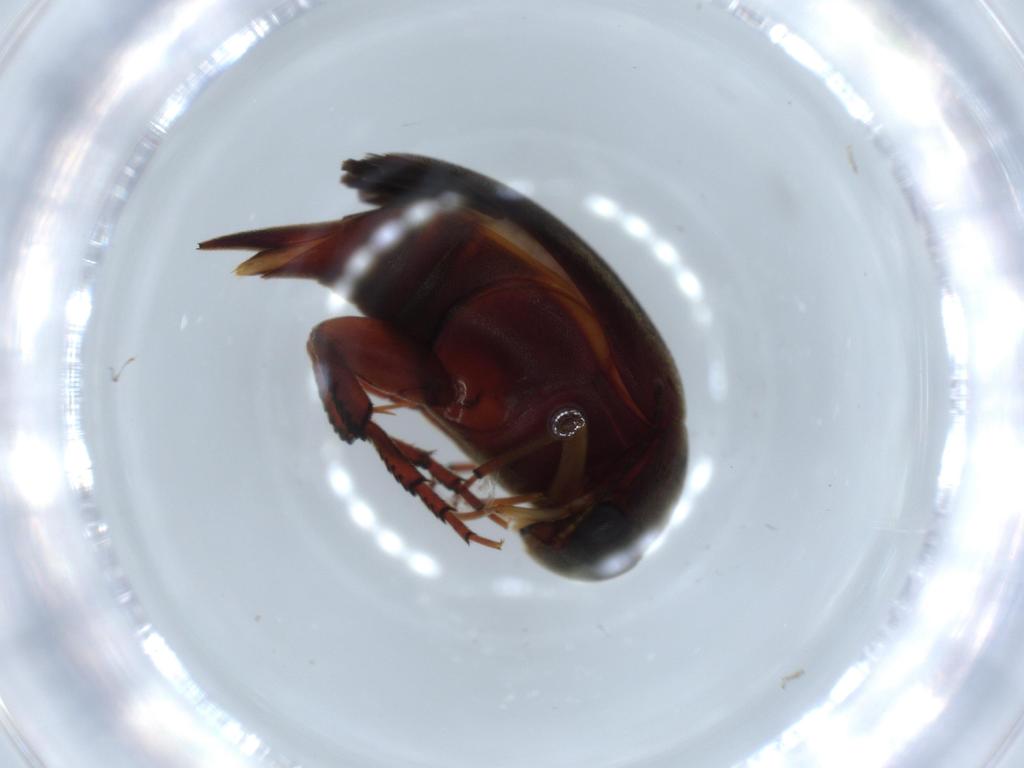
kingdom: Animalia
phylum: Arthropoda
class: Insecta
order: Coleoptera
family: Mordellidae
